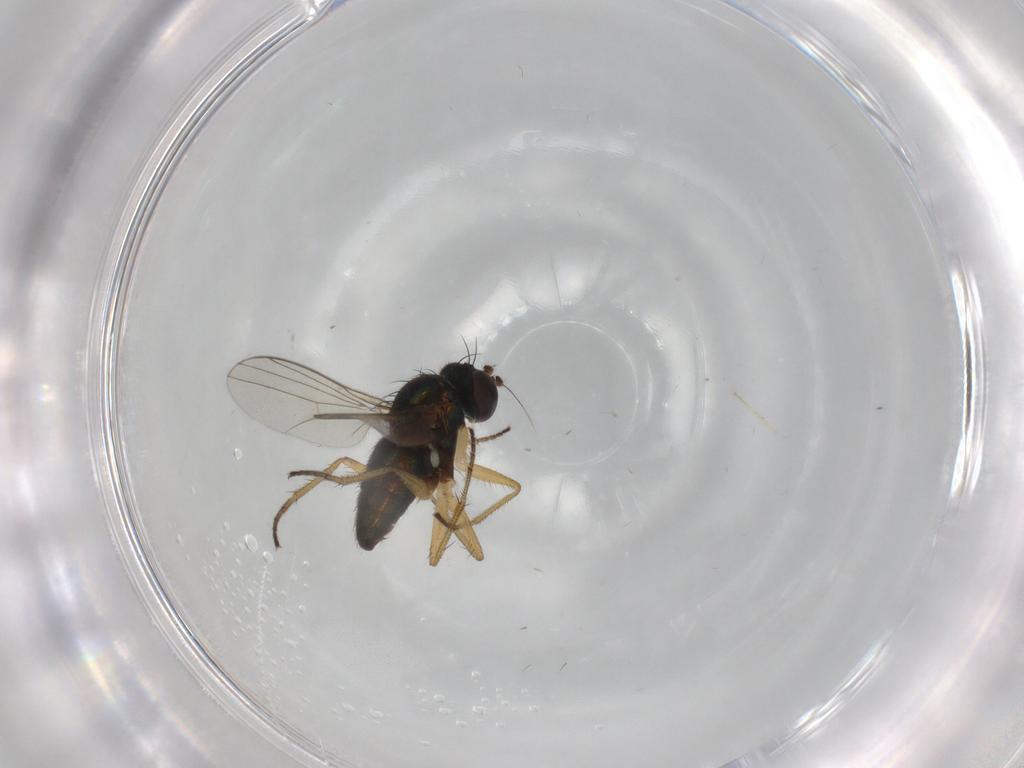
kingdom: Animalia
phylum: Arthropoda
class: Insecta
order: Diptera
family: Dolichopodidae
